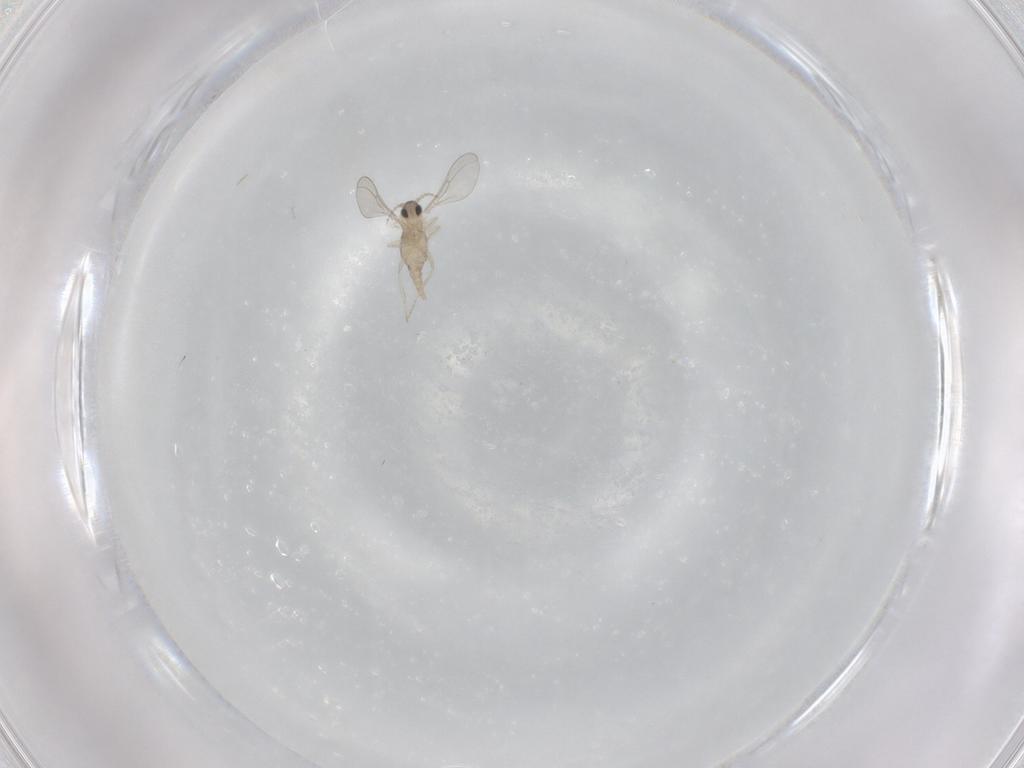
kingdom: Animalia
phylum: Arthropoda
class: Insecta
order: Diptera
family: Cecidomyiidae
